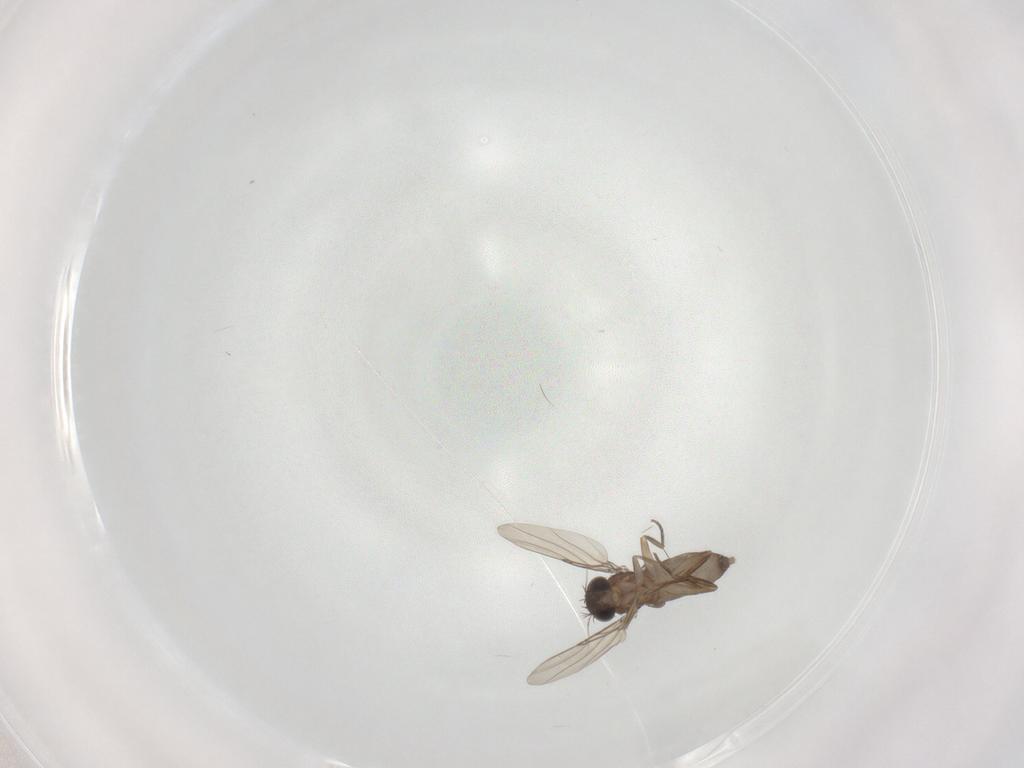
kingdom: Animalia
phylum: Arthropoda
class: Insecta
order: Diptera
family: Phoridae
